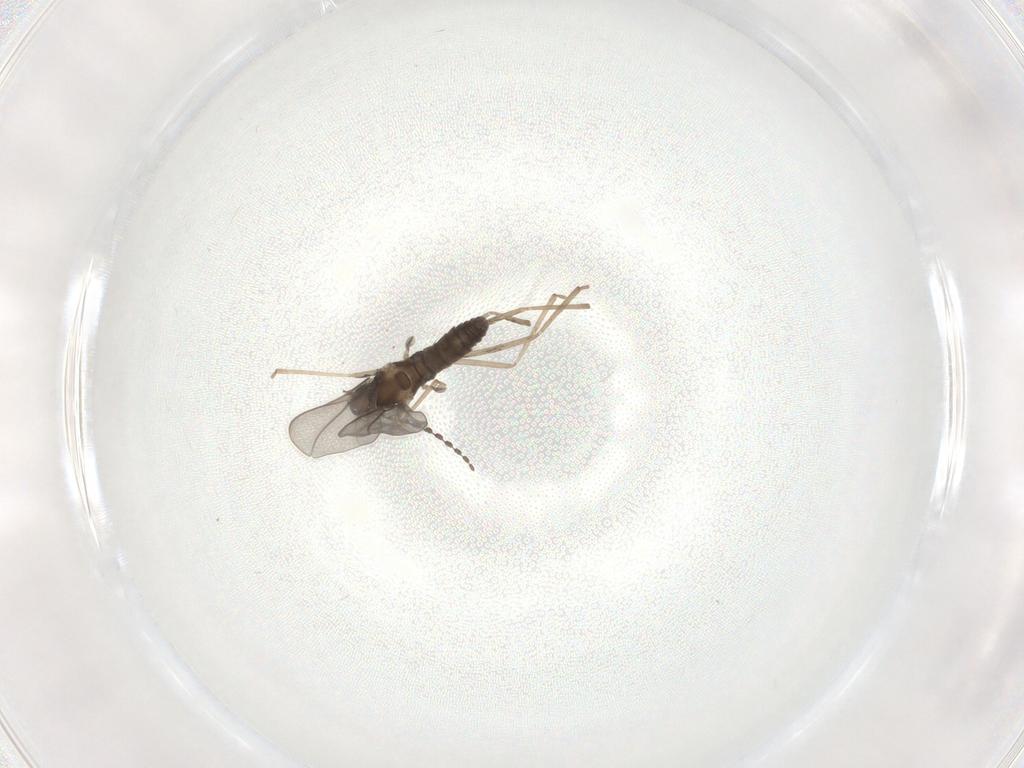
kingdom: Animalia
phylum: Arthropoda
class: Insecta
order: Diptera
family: Cecidomyiidae
